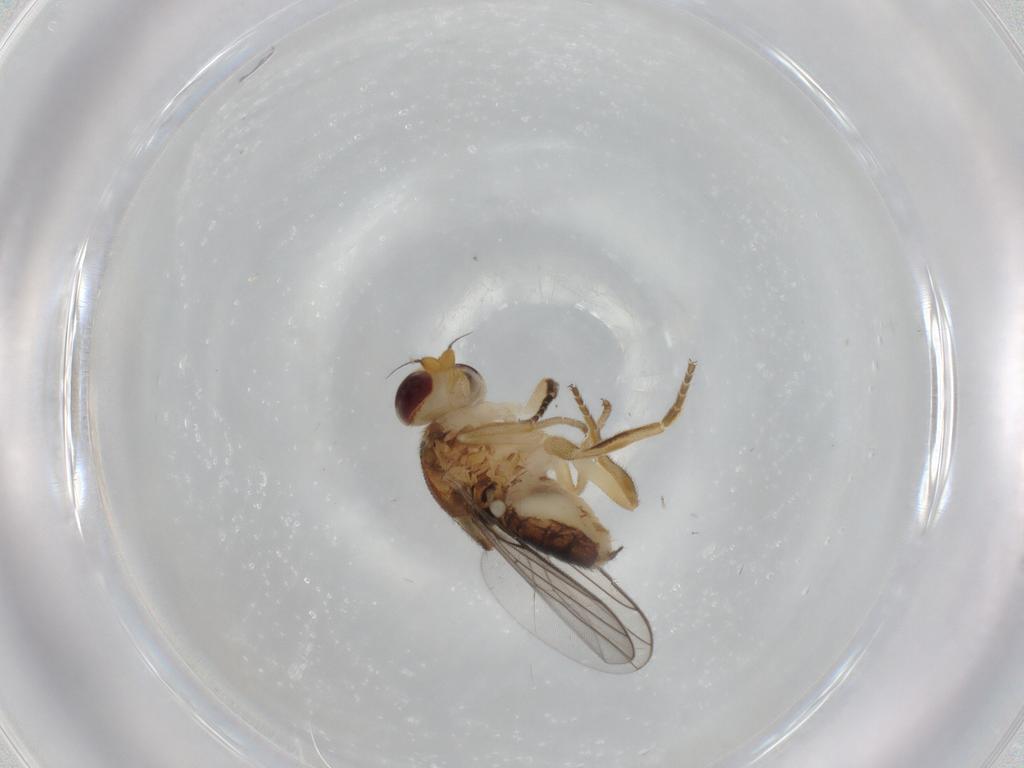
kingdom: Animalia
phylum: Arthropoda
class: Insecta
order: Diptera
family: Chloropidae
